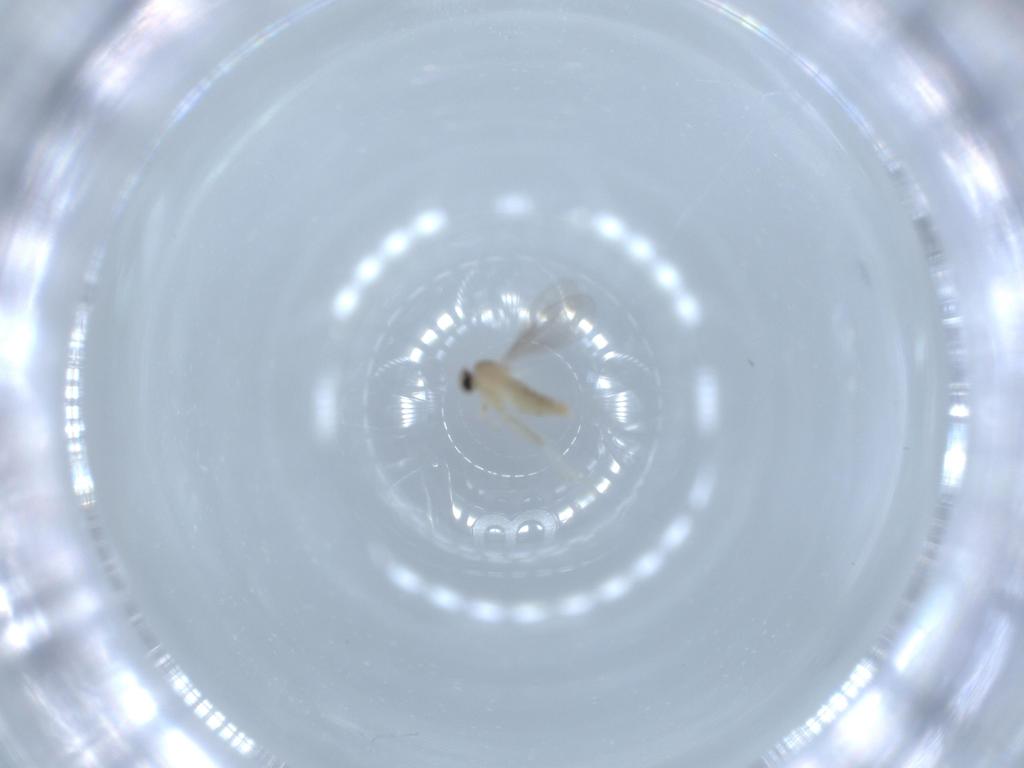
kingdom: Animalia
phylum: Arthropoda
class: Insecta
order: Diptera
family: Cecidomyiidae
